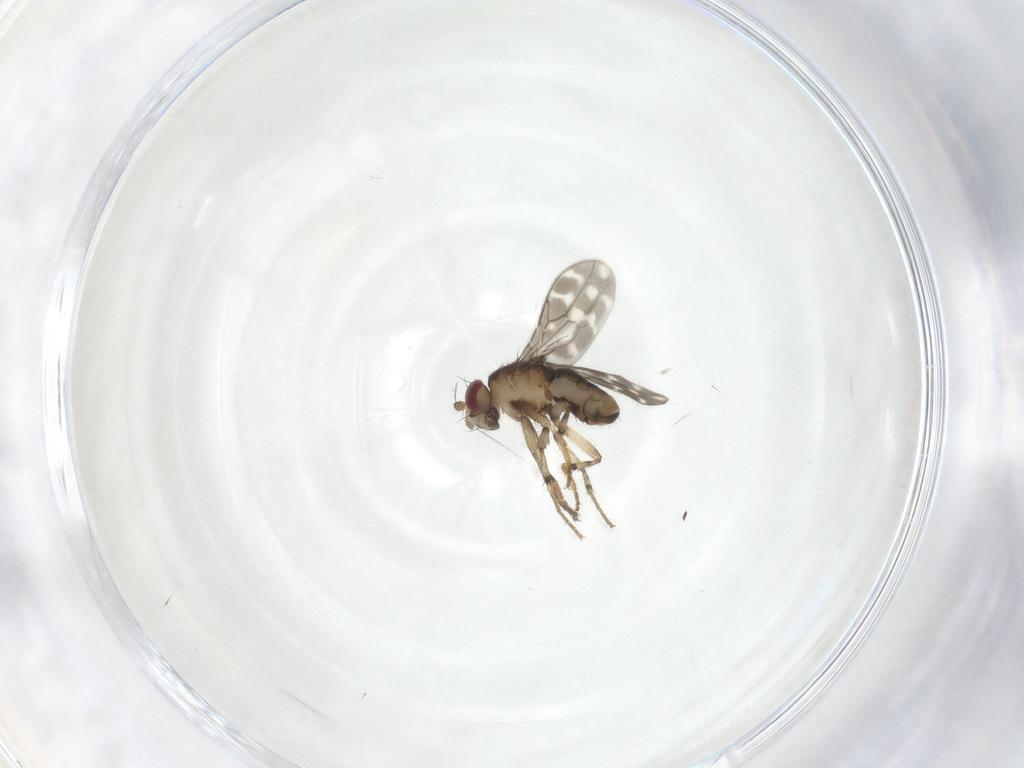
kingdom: Animalia
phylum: Arthropoda
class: Insecta
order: Diptera
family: Sphaeroceridae
